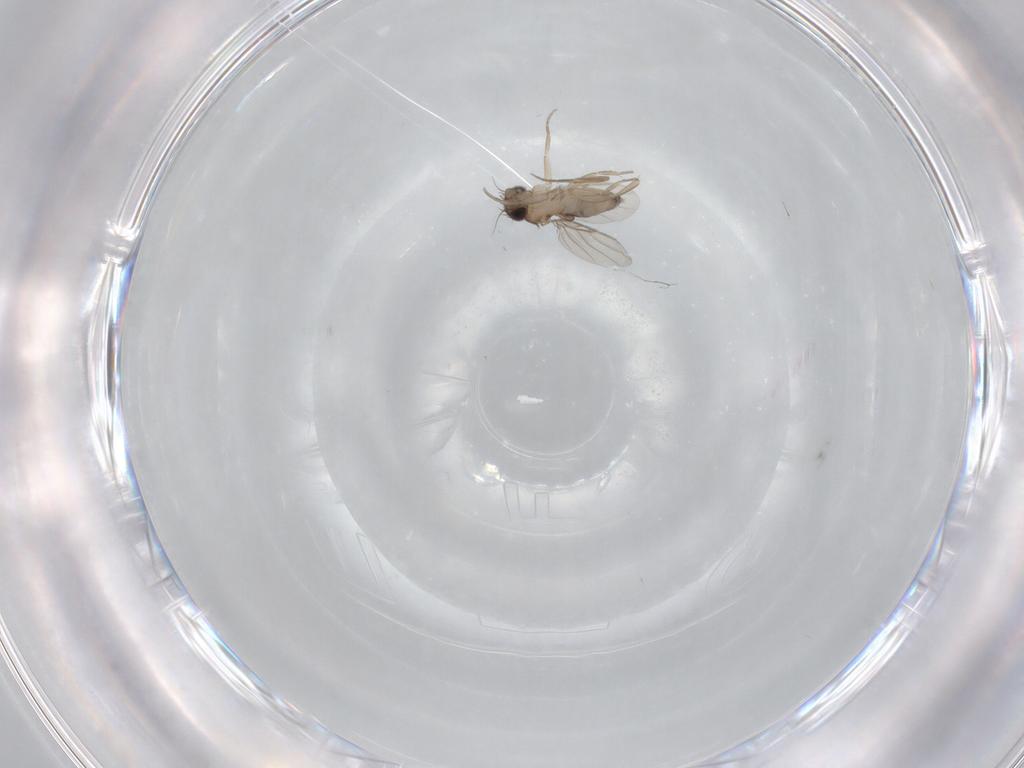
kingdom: Animalia
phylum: Arthropoda
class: Insecta
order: Diptera
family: Phoridae
